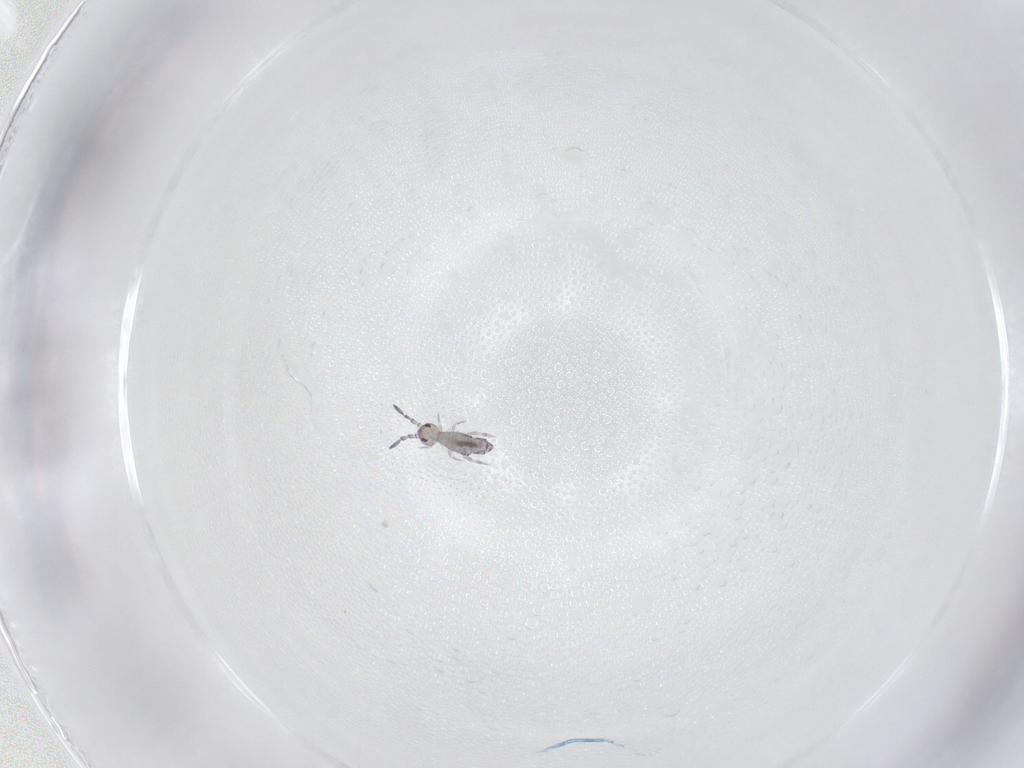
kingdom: Animalia
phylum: Arthropoda
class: Collembola
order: Entomobryomorpha
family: Entomobryidae
